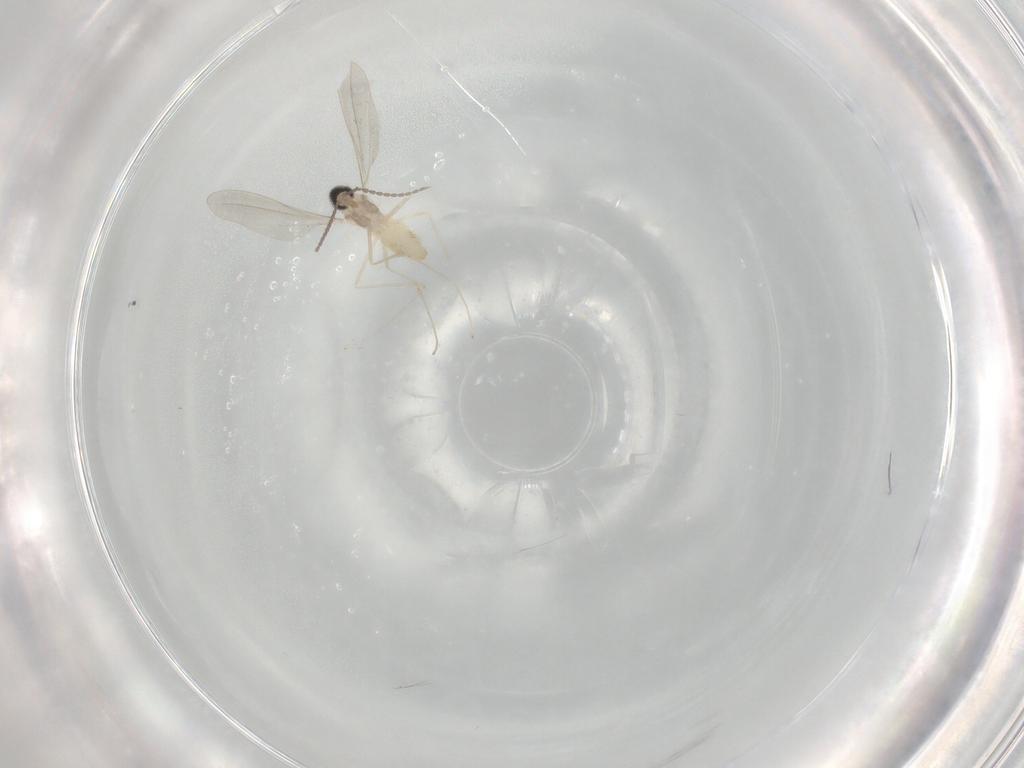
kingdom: Animalia
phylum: Arthropoda
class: Insecta
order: Diptera
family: Cecidomyiidae
